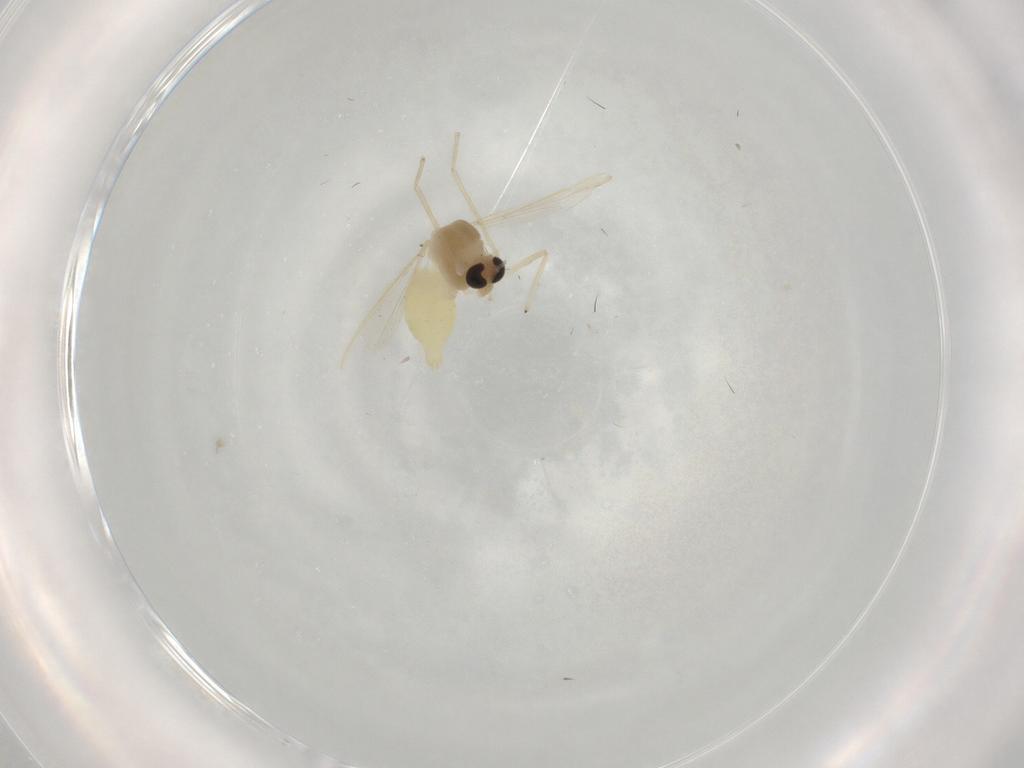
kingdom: Animalia
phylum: Arthropoda
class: Insecta
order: Diptera
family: Chironomidae
